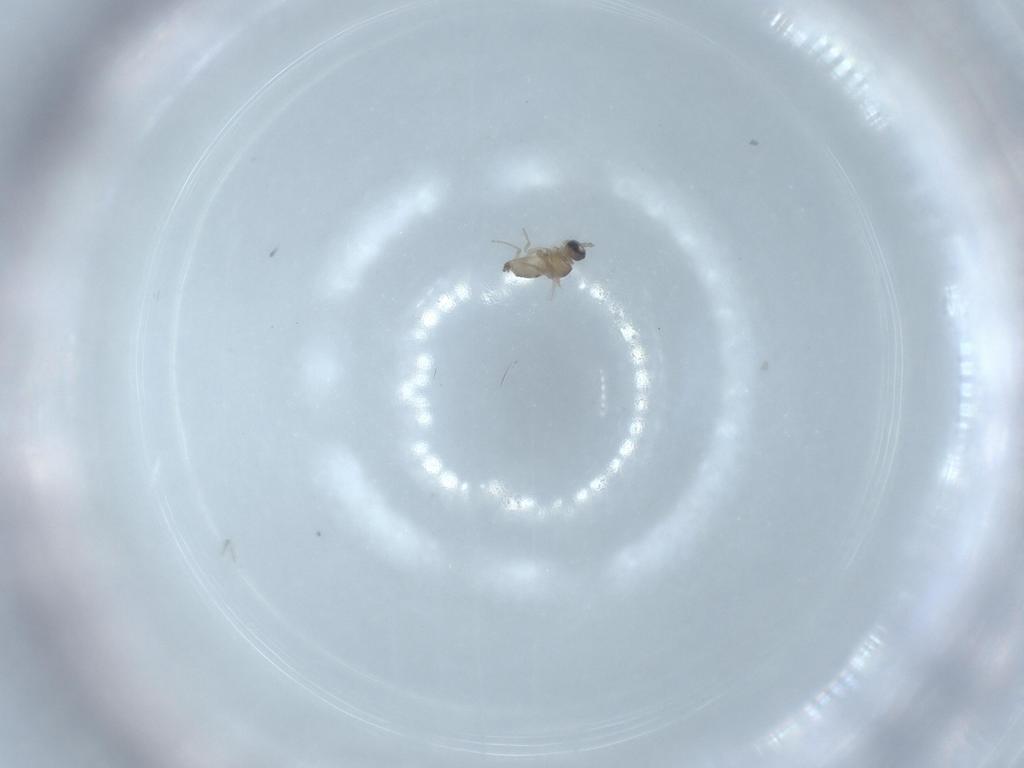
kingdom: Animalia
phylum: Arthropoda
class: Insecta
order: Diptera
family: Cecidomyiidae
